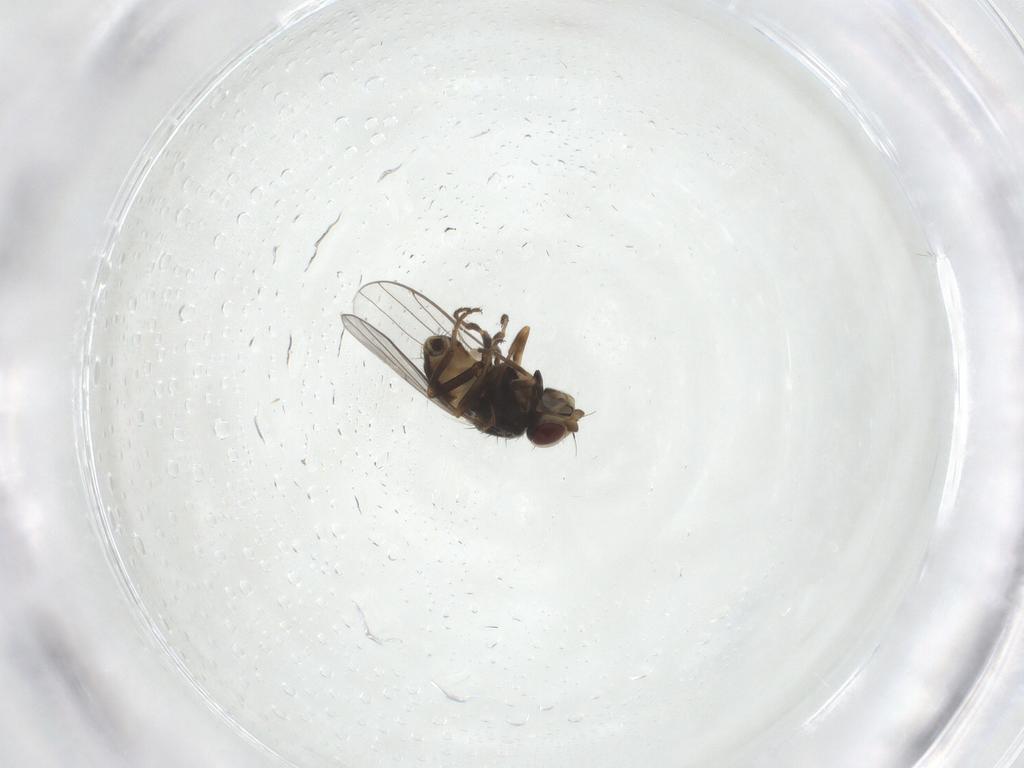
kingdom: Animalia
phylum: Arthropoda
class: Insecta
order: Diptera
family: Chloropidae
